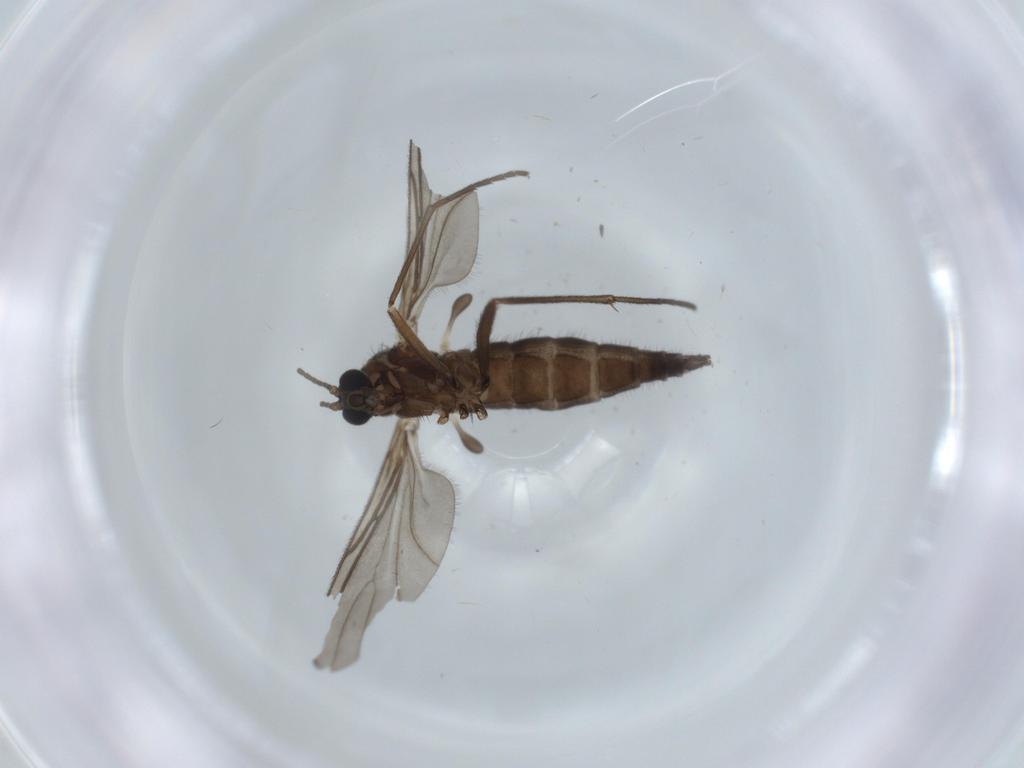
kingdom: Animalia
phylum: Arthropoda
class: Insecta
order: Diptera
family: Sciaridae
